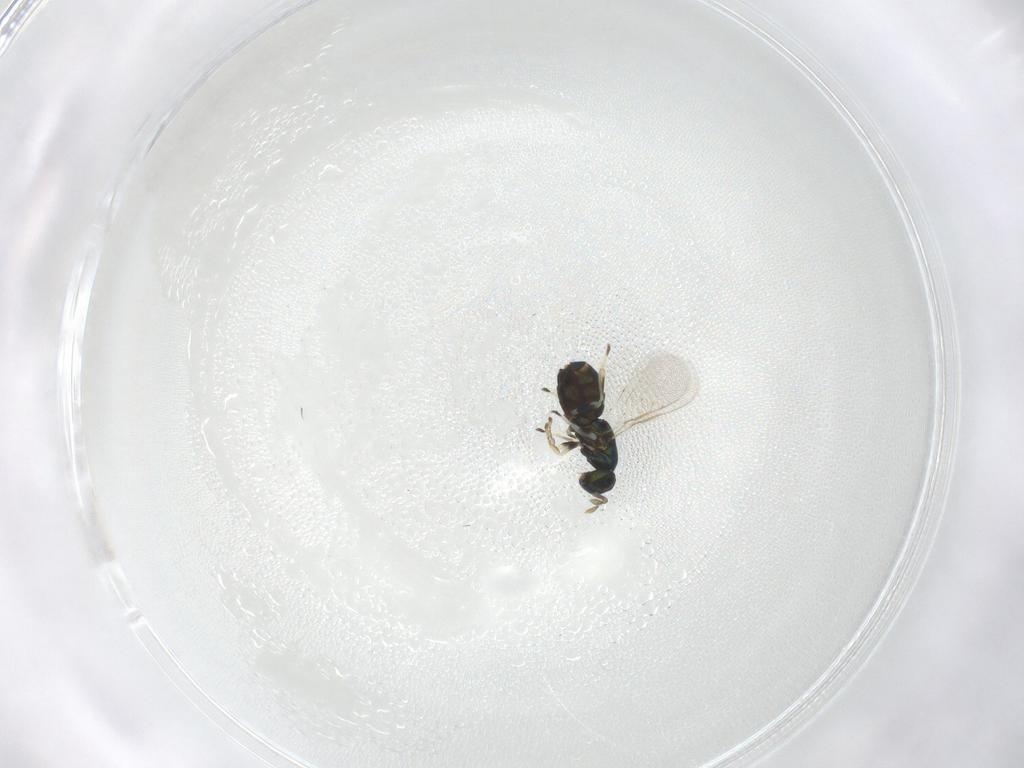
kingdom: Animalia
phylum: Arthropoda
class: Insecta
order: Hymenoptera
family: Eulophidae
